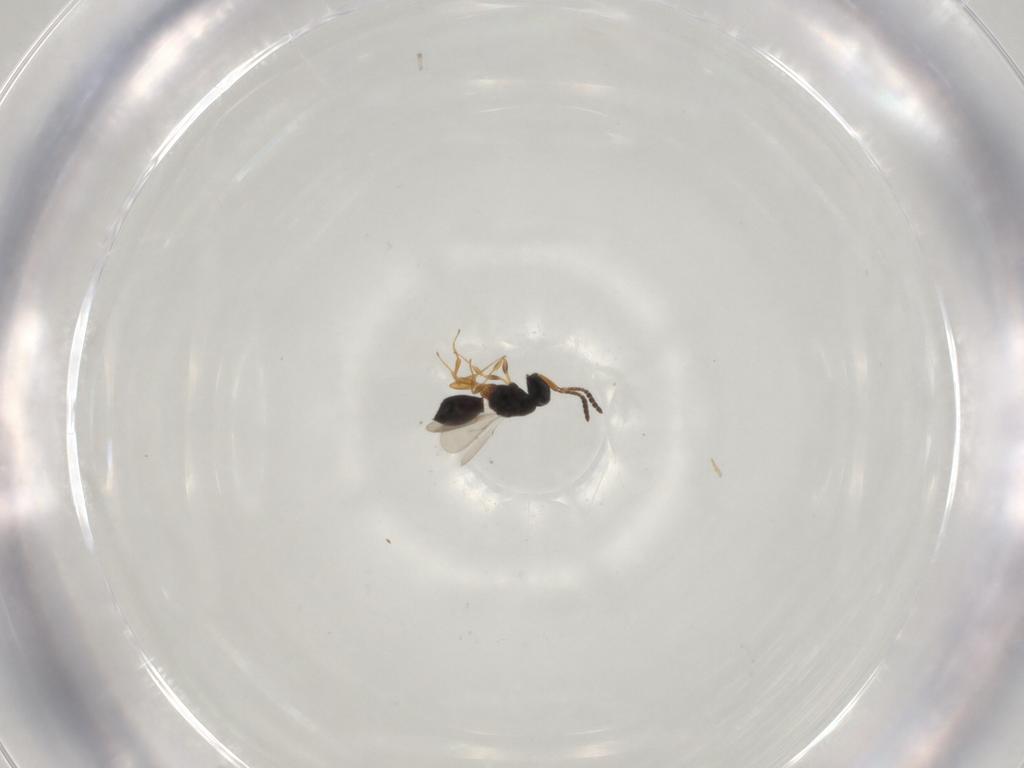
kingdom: Animalia
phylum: Arthropoda
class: Insecta
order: Hymenoptera
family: Scelionidae
